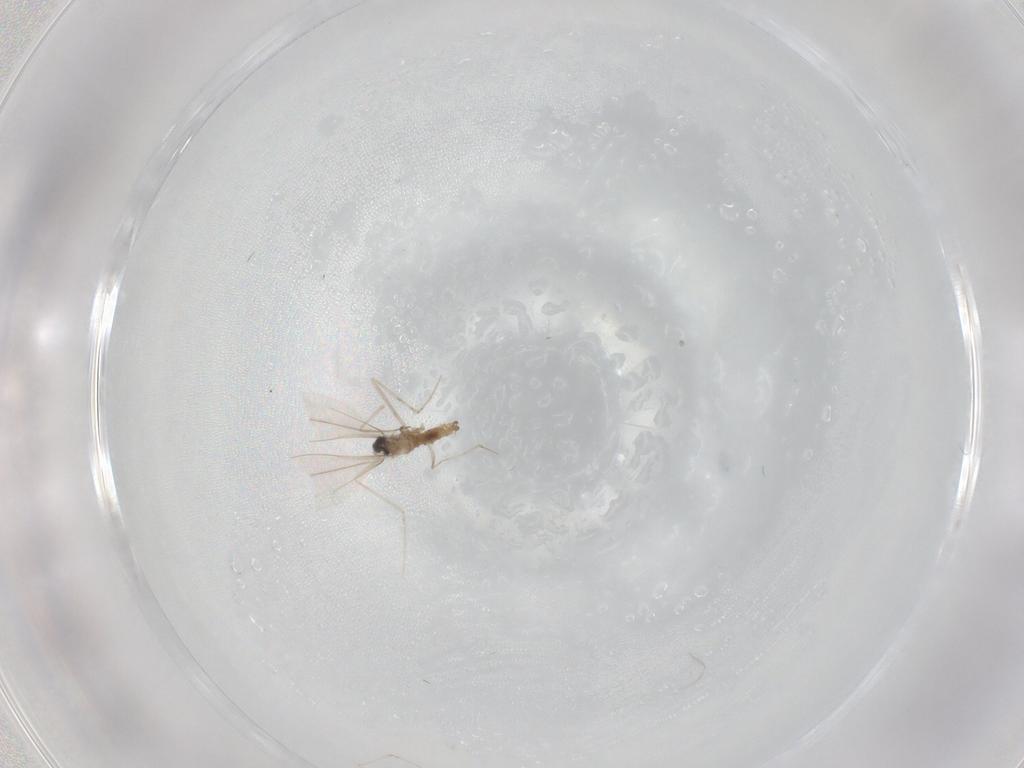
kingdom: Animalia
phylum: Arthropoda
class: Insecta
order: Diptera
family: Cecidomyiidae
